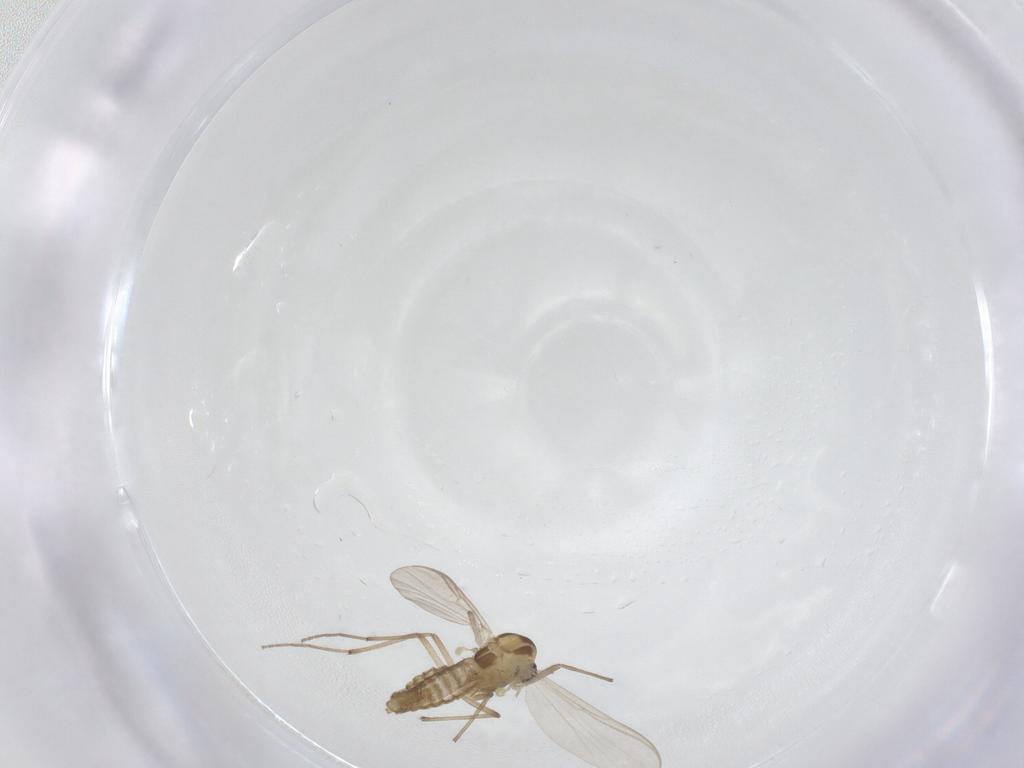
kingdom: Animalia
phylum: Arthropoda
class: Insecta
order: Diptera
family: Chironomidae
